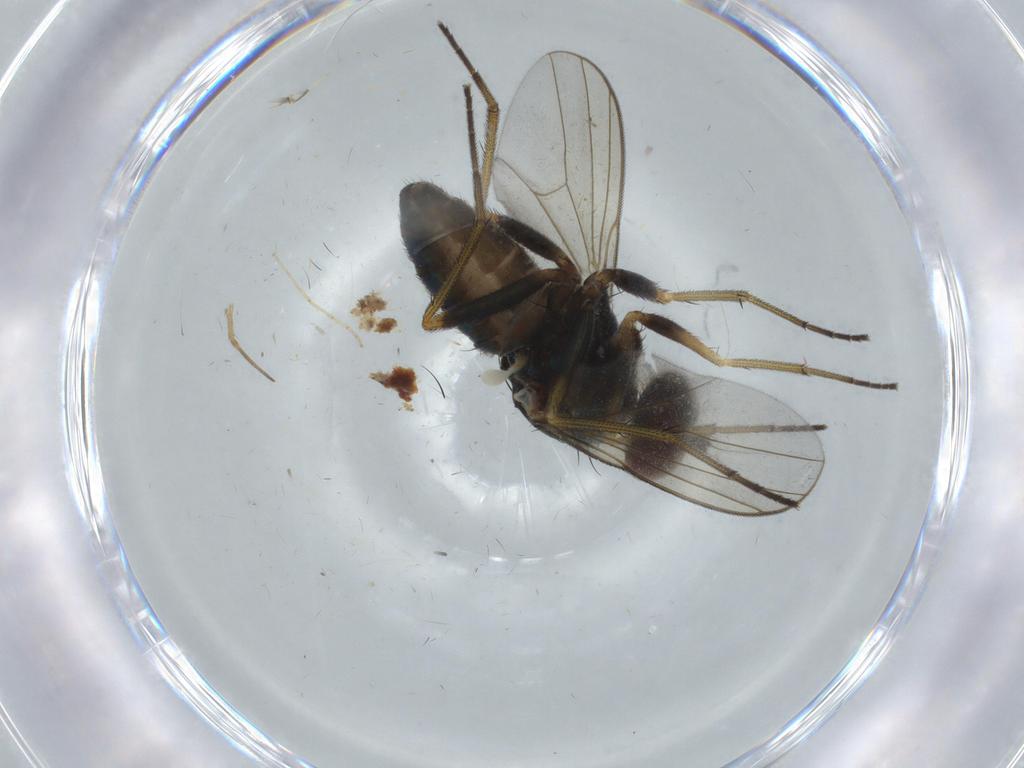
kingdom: Animalia
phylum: Arthropoda
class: Insecta
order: Diptera
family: Dolichopodidae
